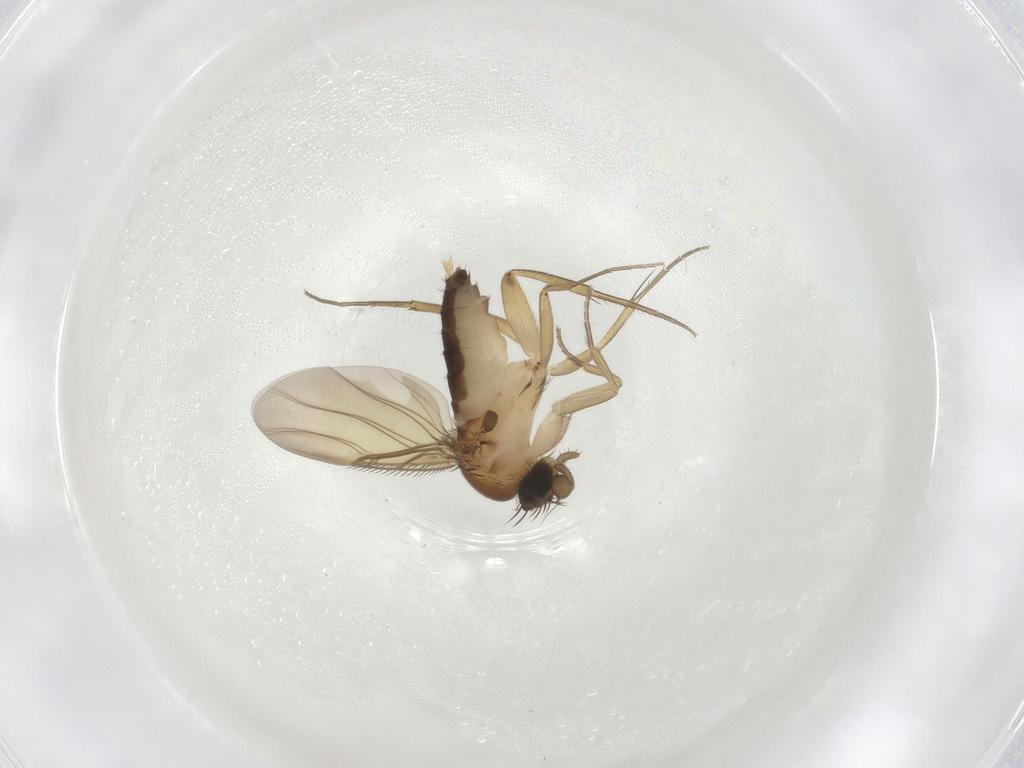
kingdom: Animalia
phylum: Arthropoda
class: Insecta
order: Diptera
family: Phoridae
